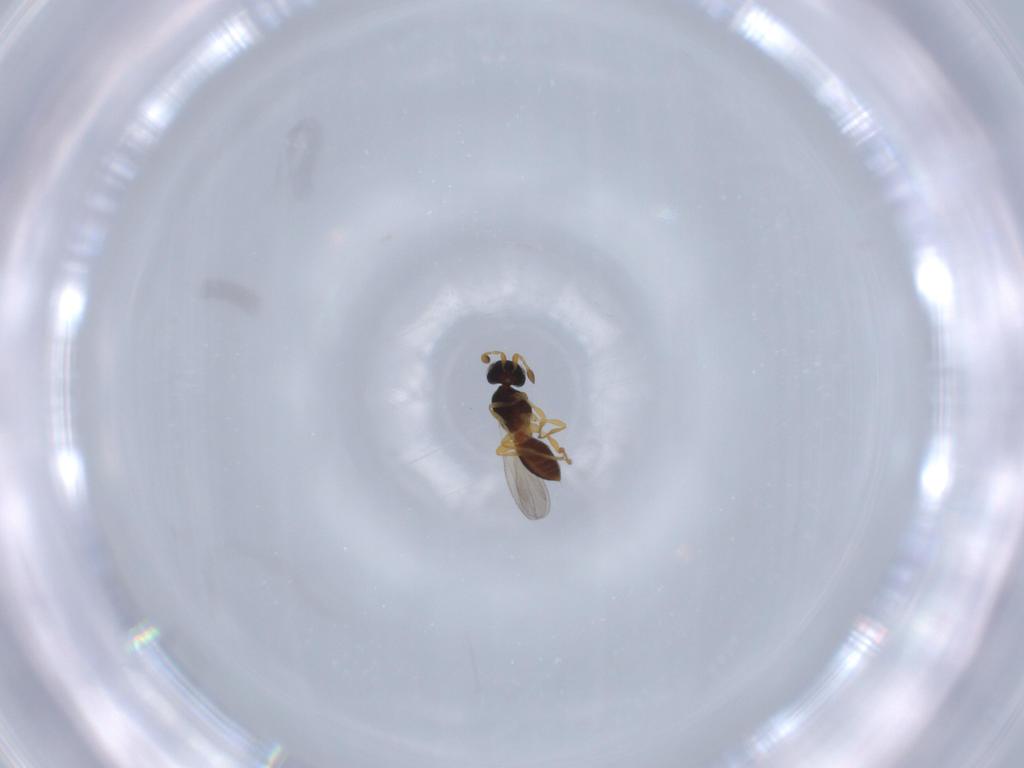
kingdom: Animalia
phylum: Arthropoda
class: Insecta
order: Hymenoptera
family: Platygastridae
